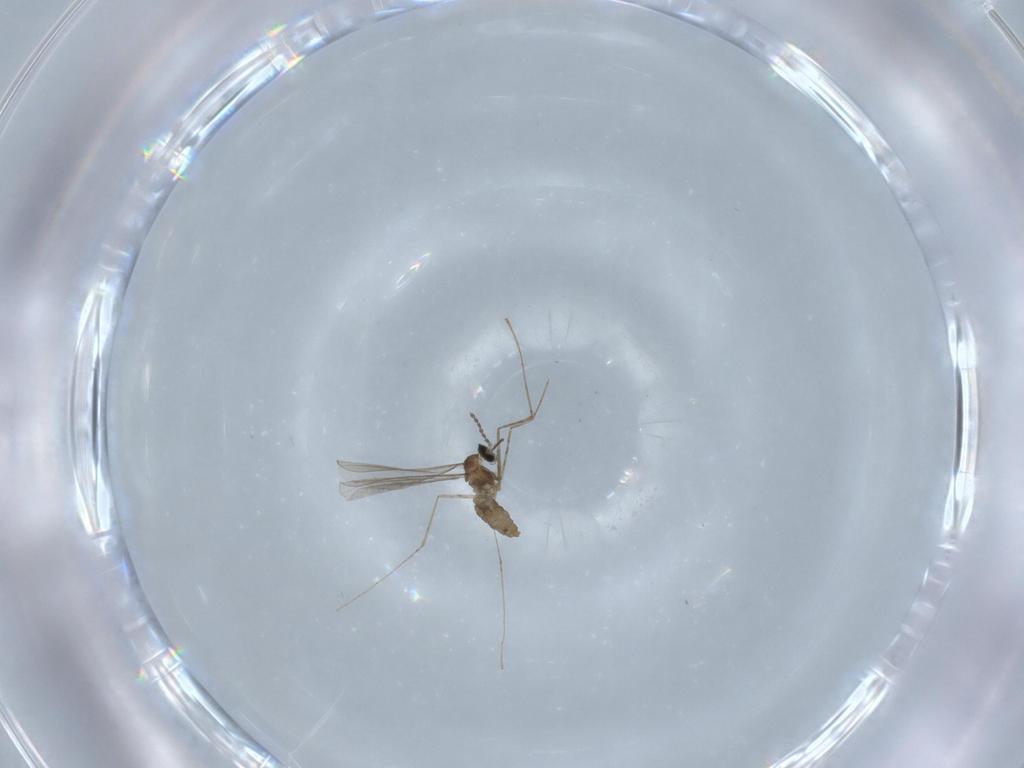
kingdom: Animalia
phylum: Arthropoda
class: Insecta
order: Diptera
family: Cecidomyiidae
